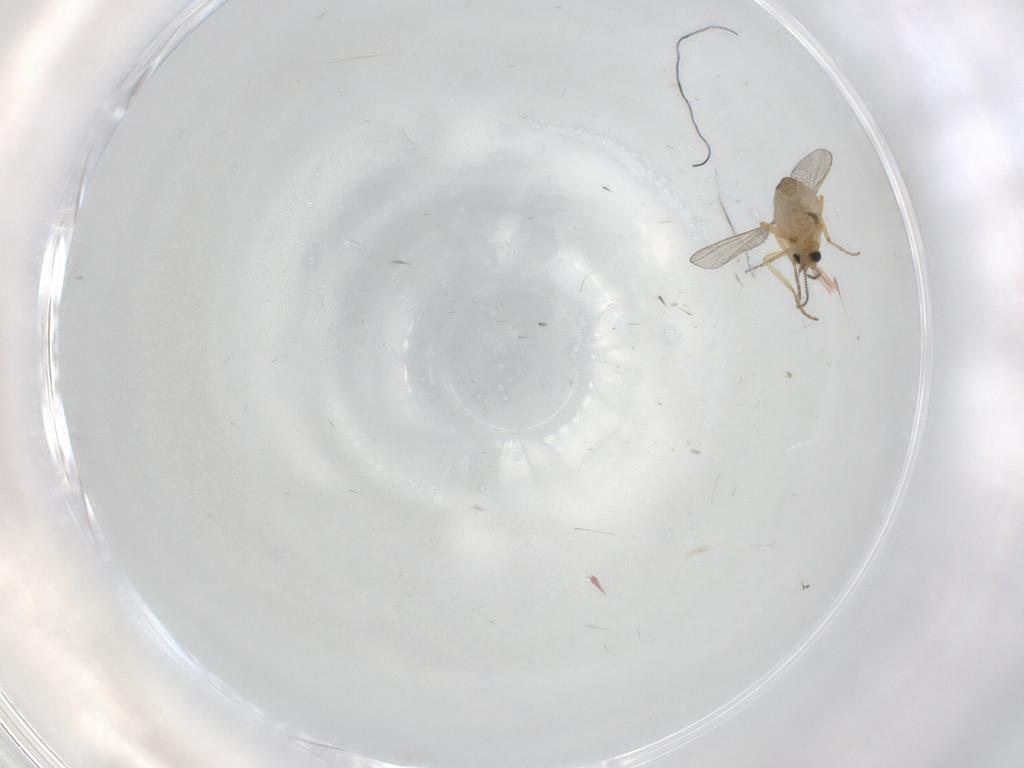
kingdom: Animalia
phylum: Arthropoda
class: Insecta
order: Diptera
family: Ceratopogonidae
